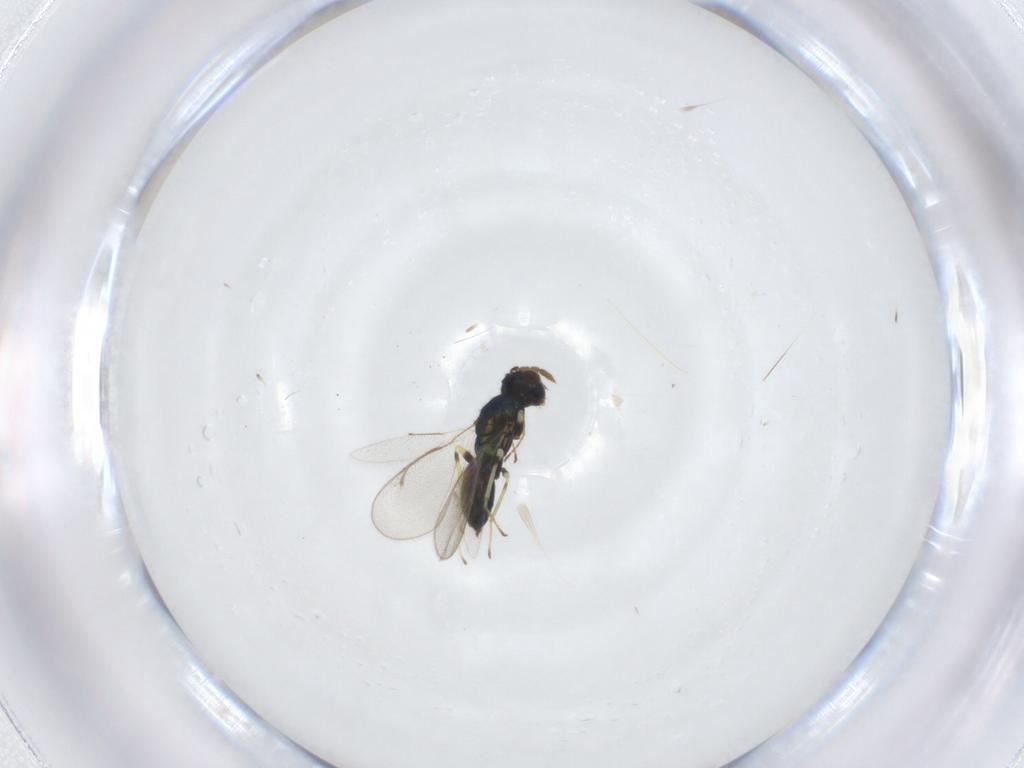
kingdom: Animalia
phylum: Arthropoda
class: Insecta
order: Hymenoptera
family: Eulophidae
